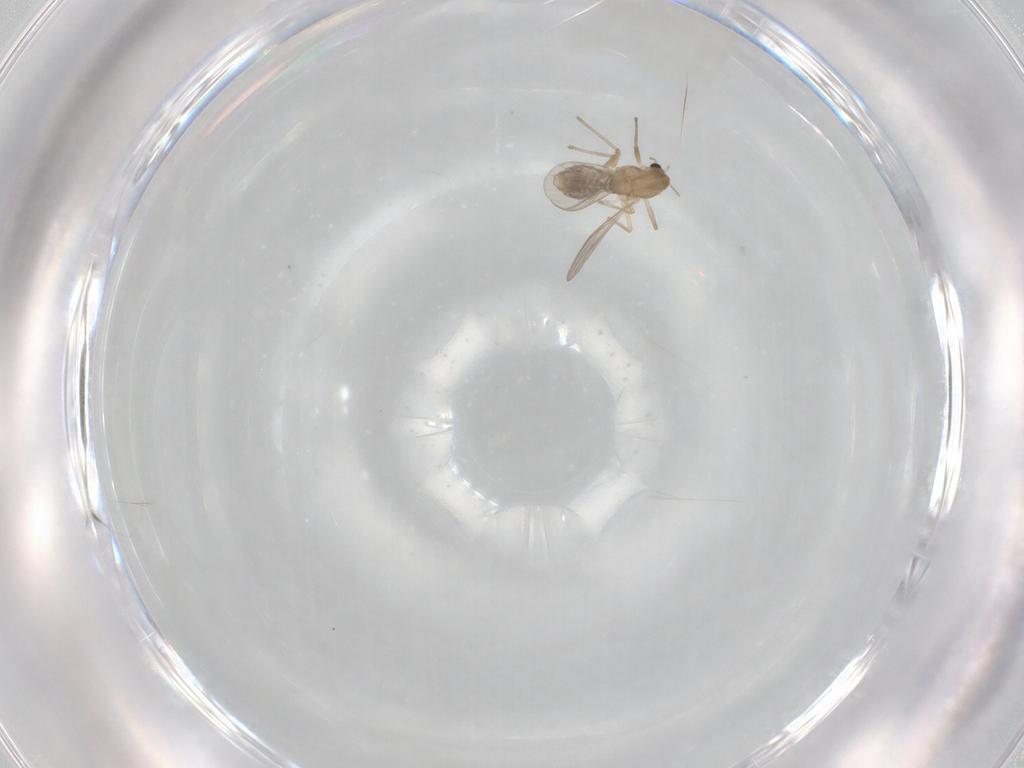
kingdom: Animalia
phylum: Arthropoda
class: Insecta
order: Diptera
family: Chironomidae
